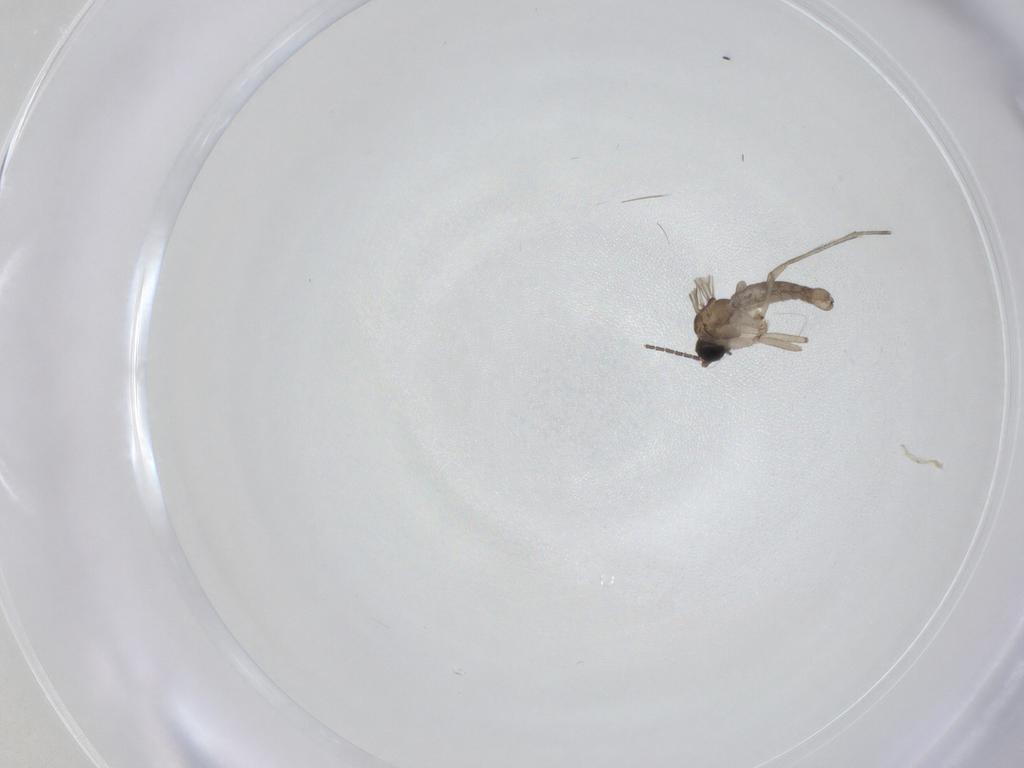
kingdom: Animalia
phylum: Arthropoda
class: Insecta
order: Diptera
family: Sciaridae
